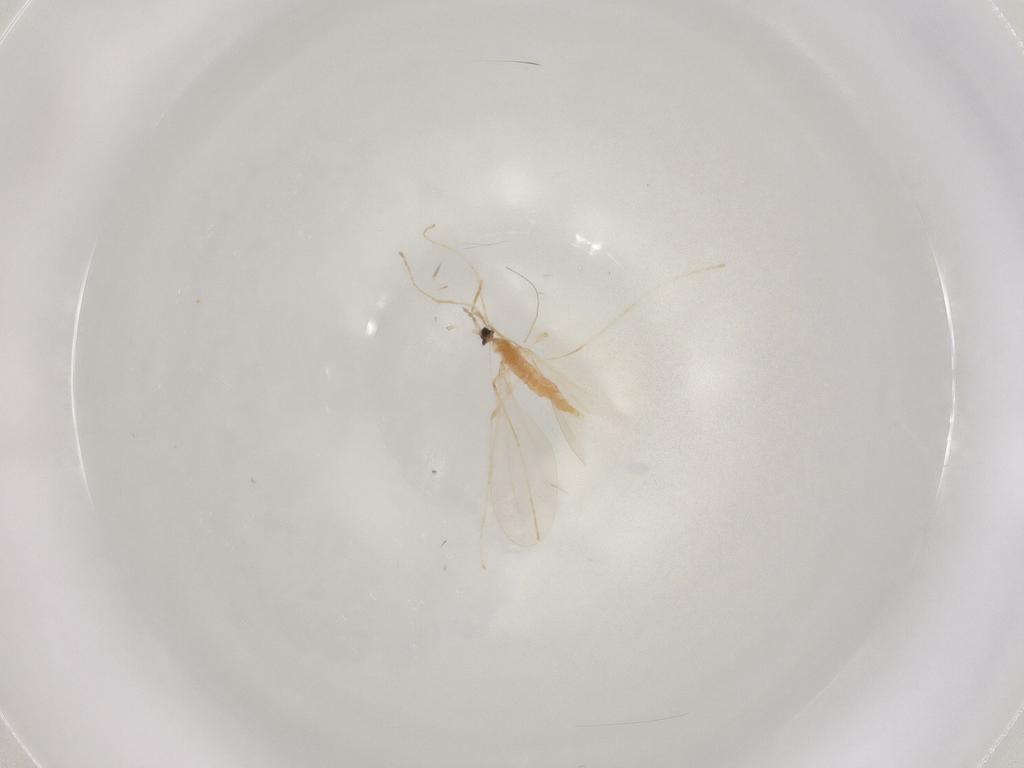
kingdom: Animalia
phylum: Arthropoda
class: Insecta
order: Diptera
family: Cecidomyiidae
